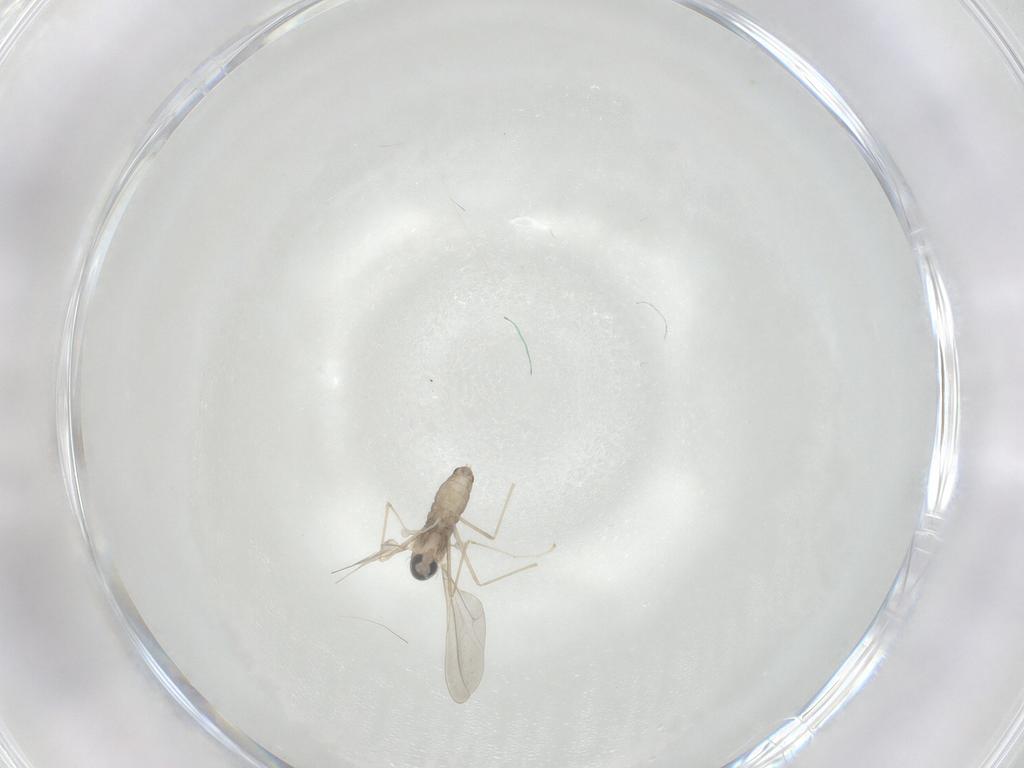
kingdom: Animalia
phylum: Arthropoda
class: Insecta
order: Diptera
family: Cecidomyiidae
